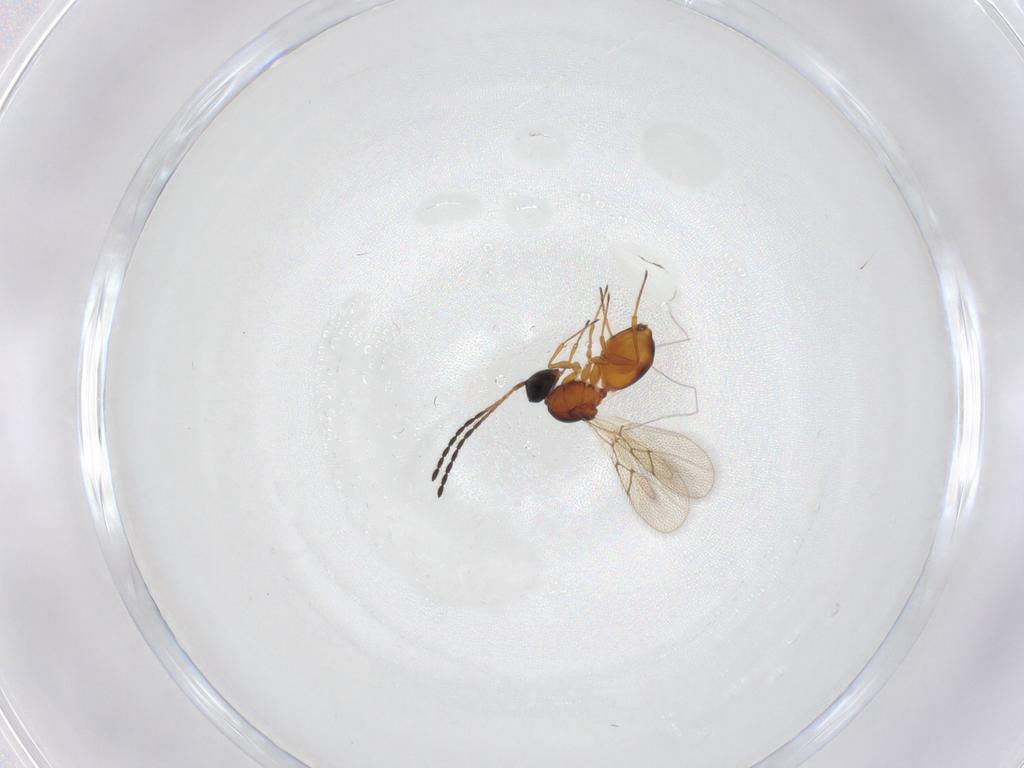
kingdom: Animalia
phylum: Arthropoda
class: Insecta
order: Hymenoptera
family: Figitidae
